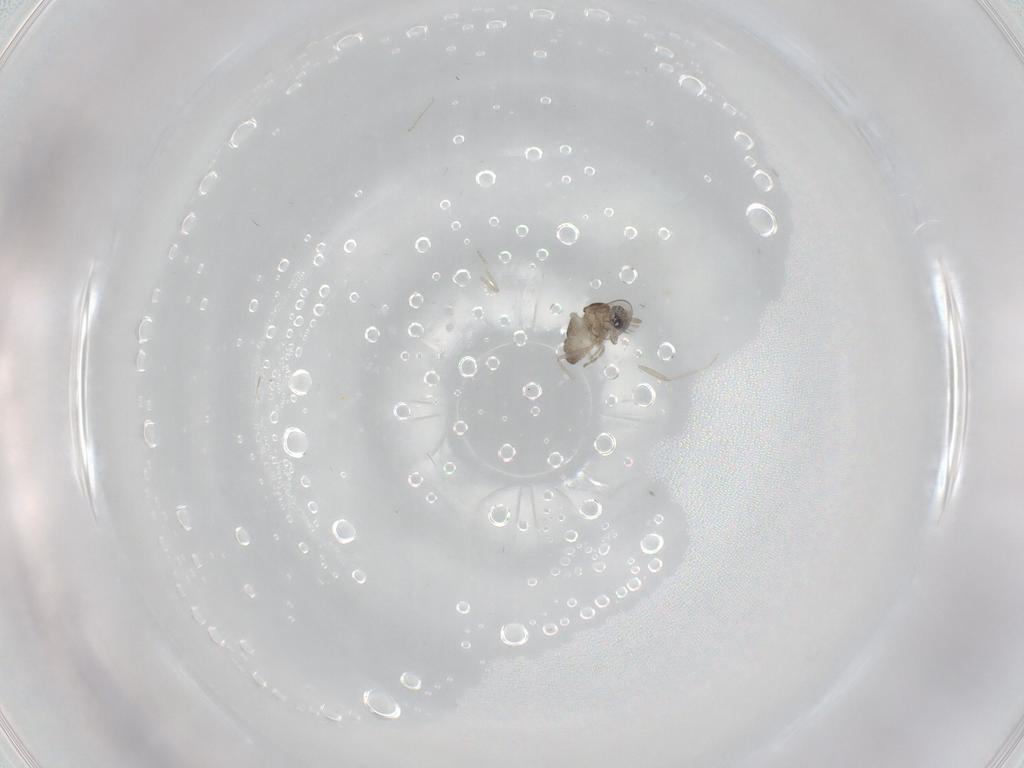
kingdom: Animalia
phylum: Arthropoda
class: Insecta
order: Diptera
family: Cecidomyiidae
